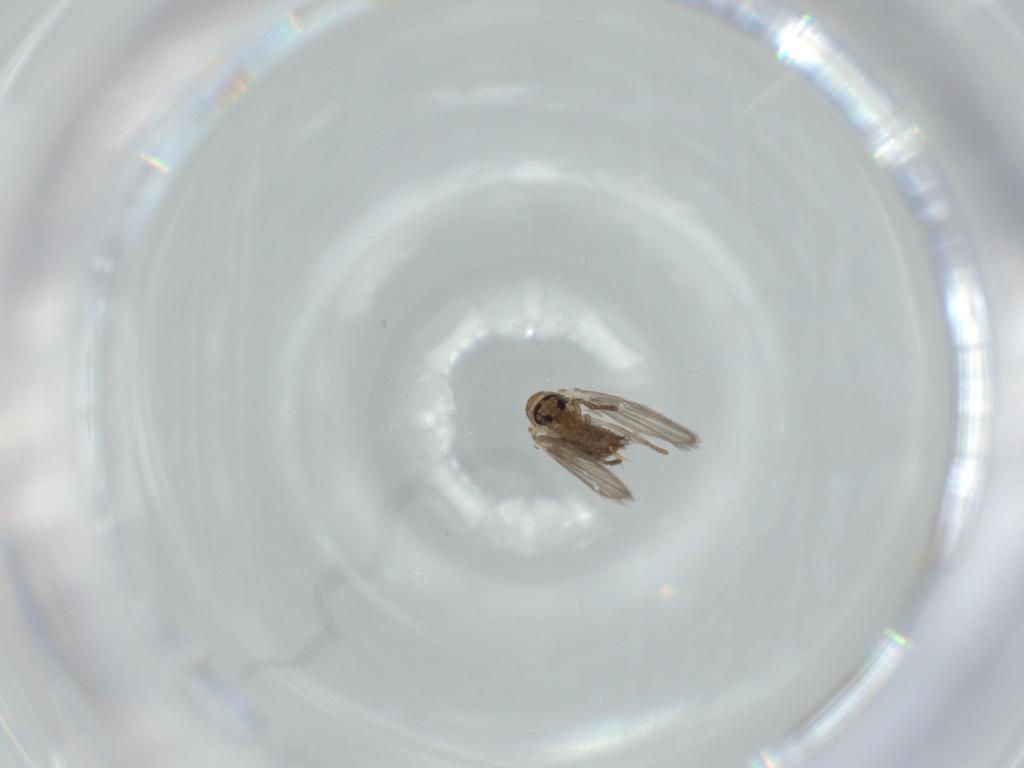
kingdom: Animalia
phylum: Arthropoda
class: Insecta
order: Diptera
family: Psychodidae
